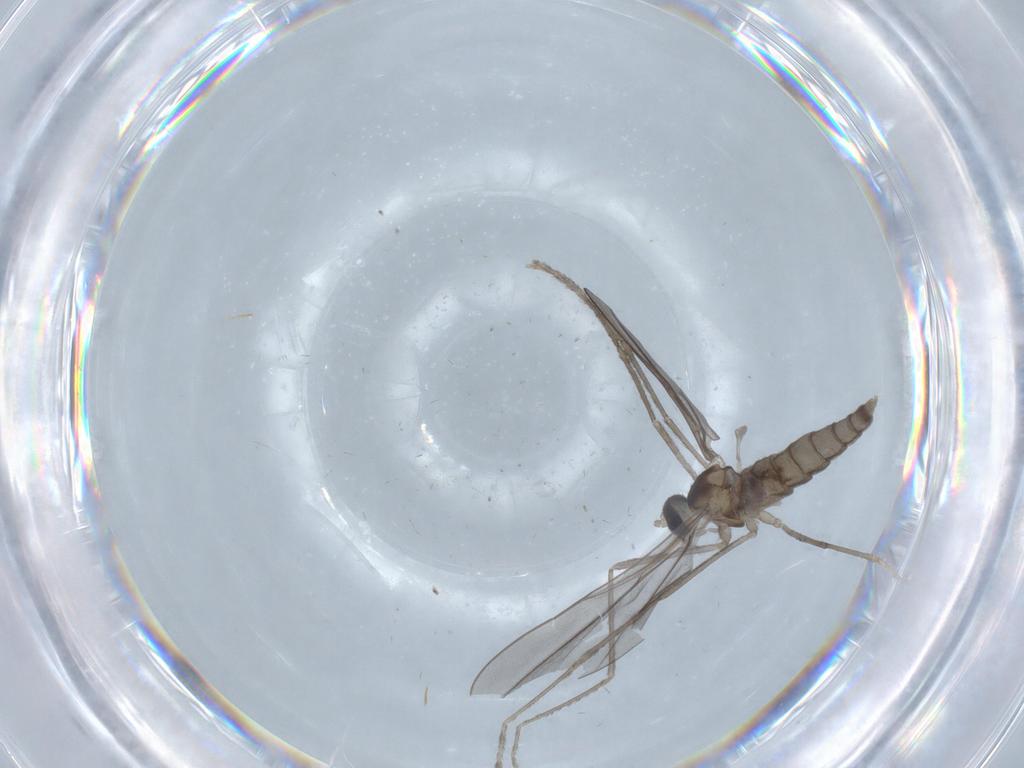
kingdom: Animalia
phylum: Arthropoda
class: Insecta
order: Diptera
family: Cecidomyiidae
